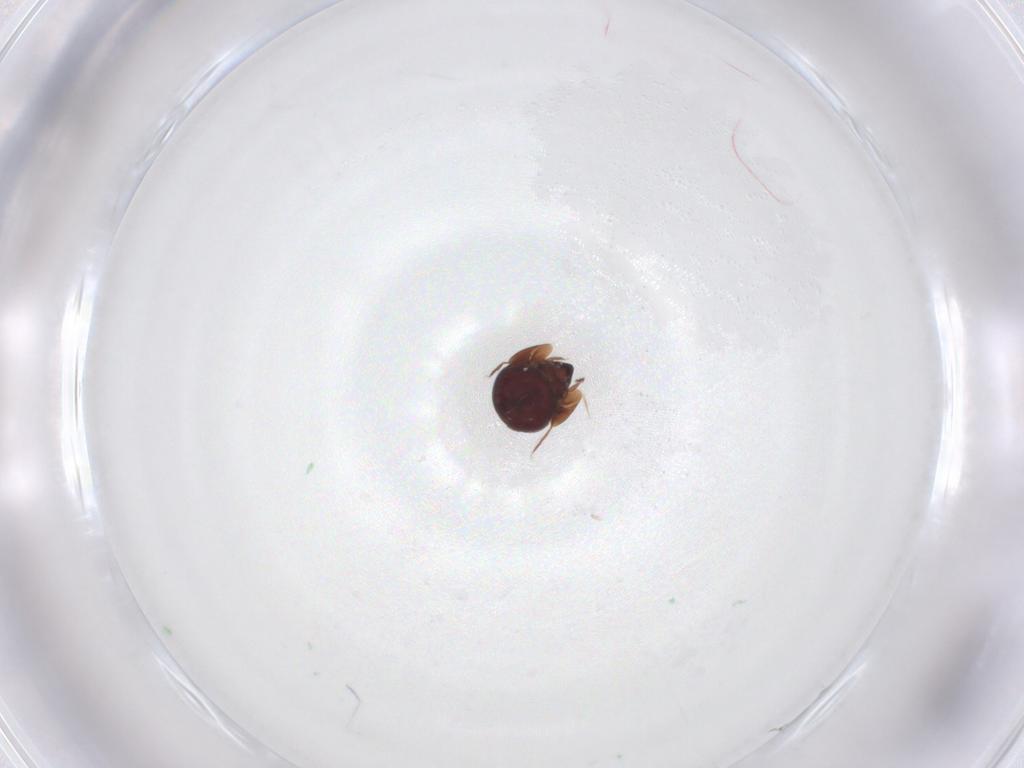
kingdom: Animalia
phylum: Arthropoda
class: Arachnida
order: Sarcoptiformes
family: Galumnidae
